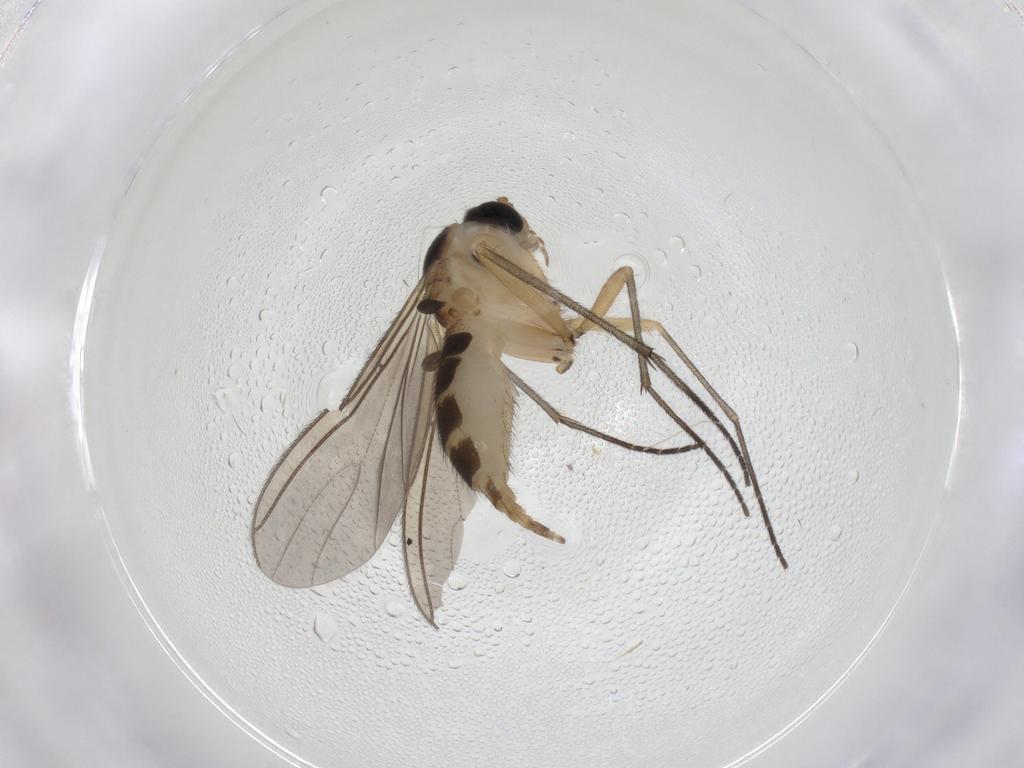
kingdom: Animalia
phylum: Arthropoda
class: Insecta
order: Diptera
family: Sciaridae
